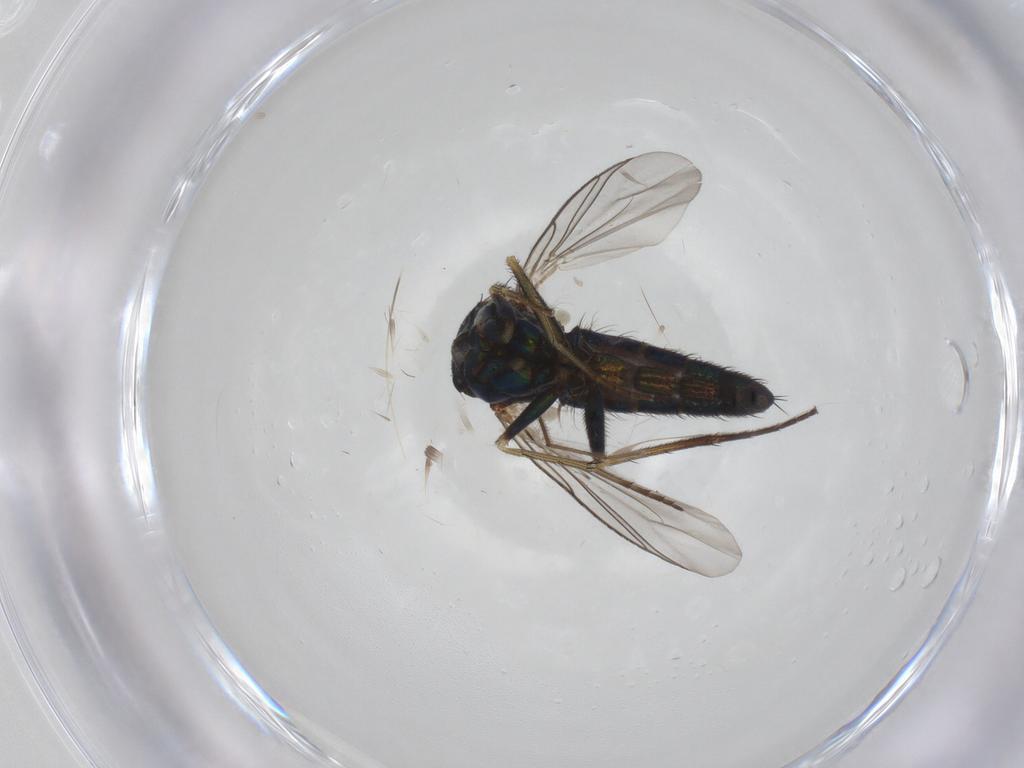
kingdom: Animalia
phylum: Arthropoda
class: Insecta
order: Diptera
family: Dolichopodidae
